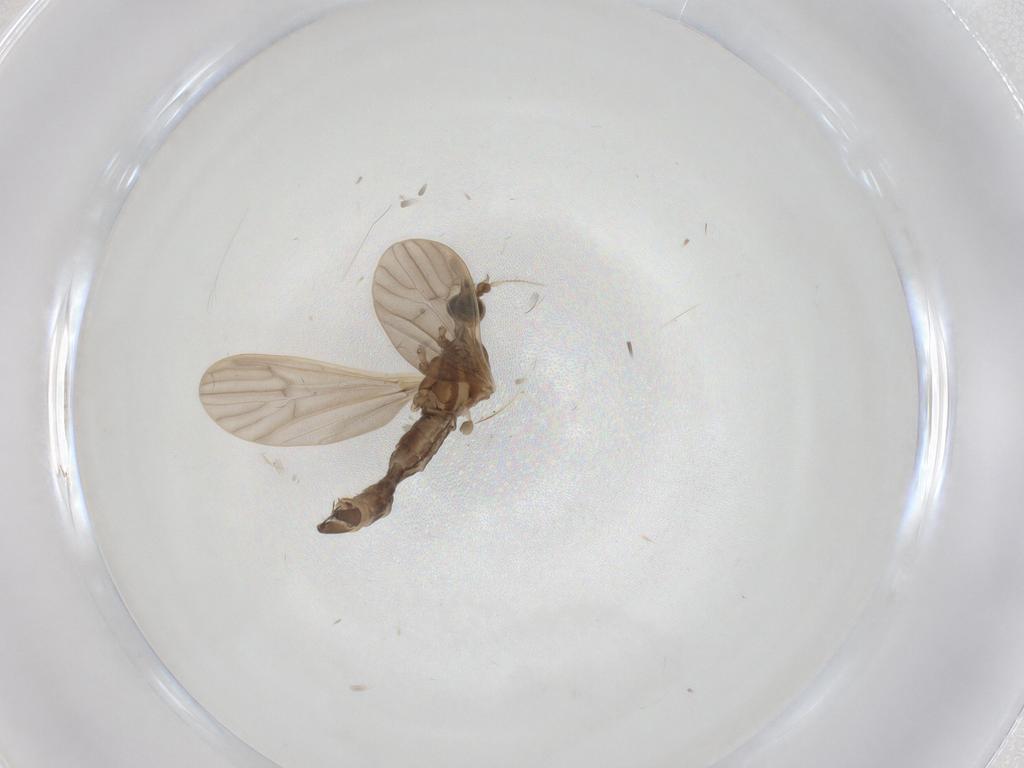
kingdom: Animalia
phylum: Arthropoda
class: Insecta
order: Diptera
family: Limoniidae
